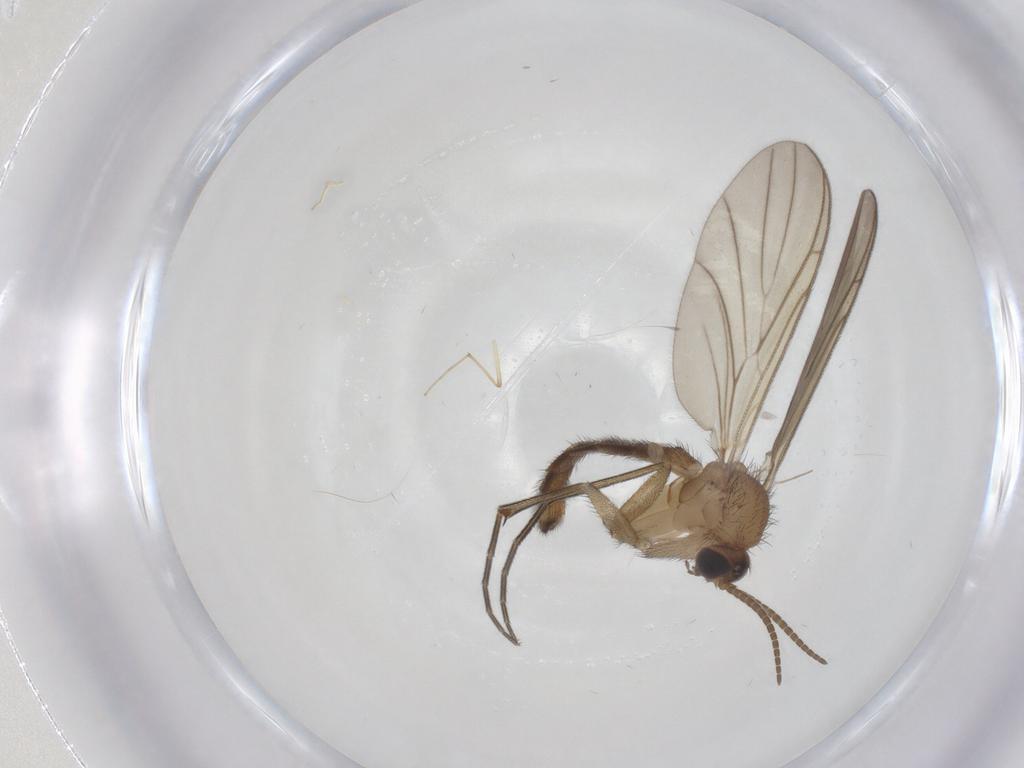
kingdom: Animalia
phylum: Arthropoda
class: Insecta
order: Diptera
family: Keroplatidae
